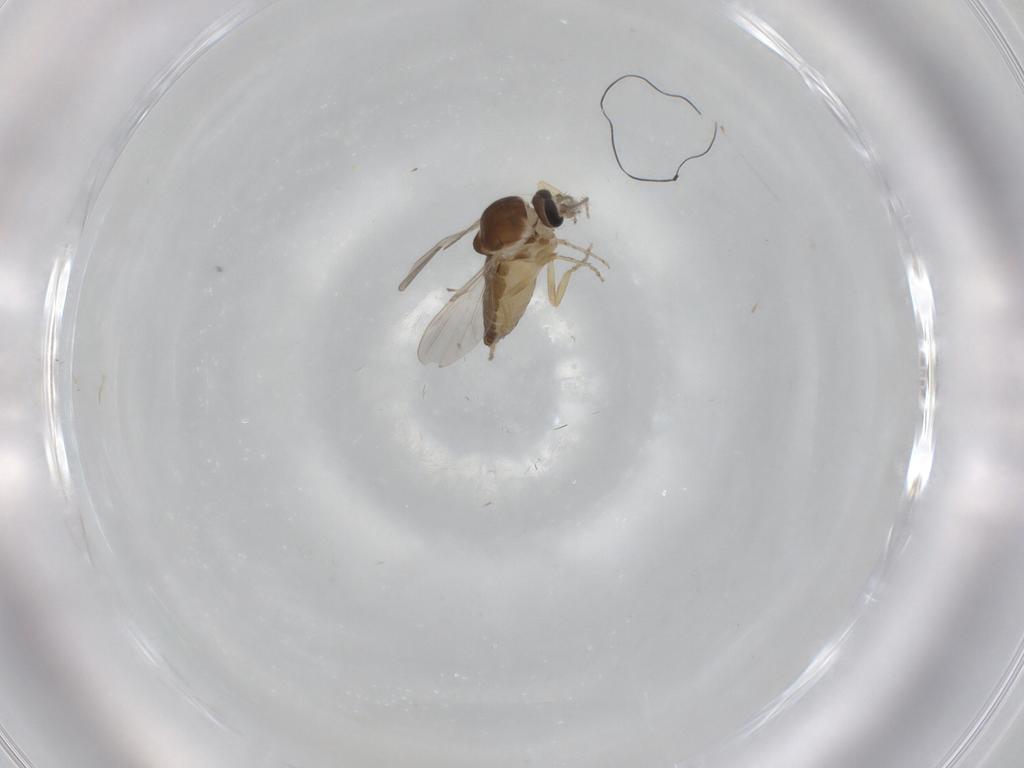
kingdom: Animalia
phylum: Arthropoda
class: Insecta
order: Diptera
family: Ceratopogonidae
